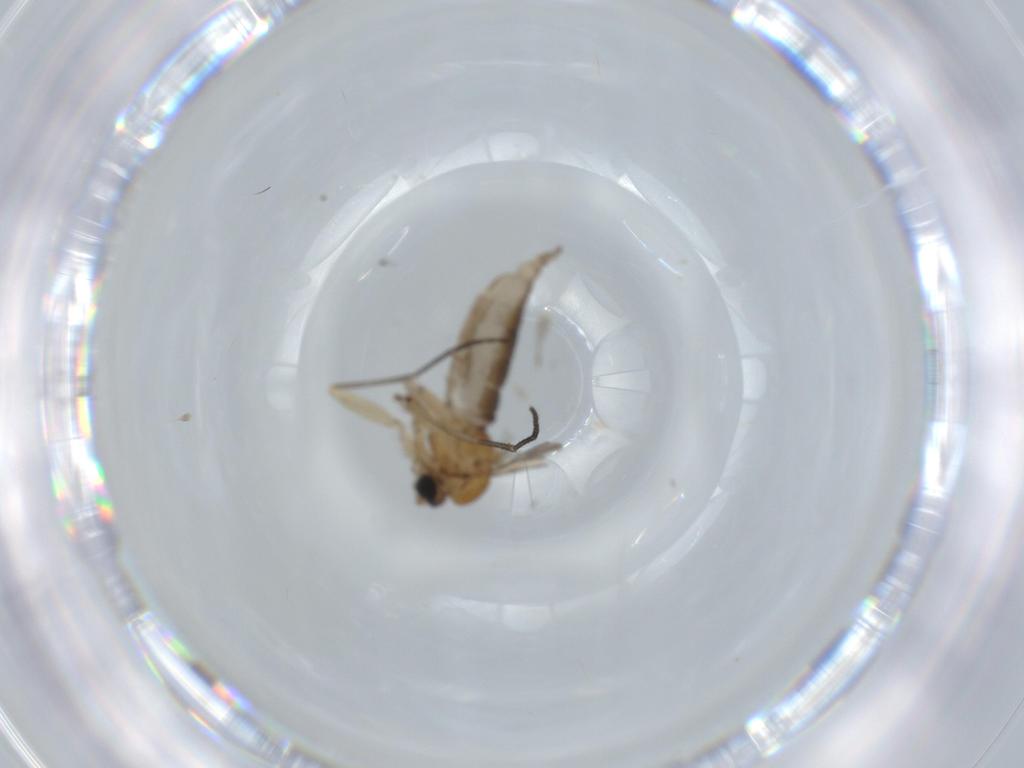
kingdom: Animalia
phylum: Arthropoda
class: Insecta
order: Diptera
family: Sciaridae
